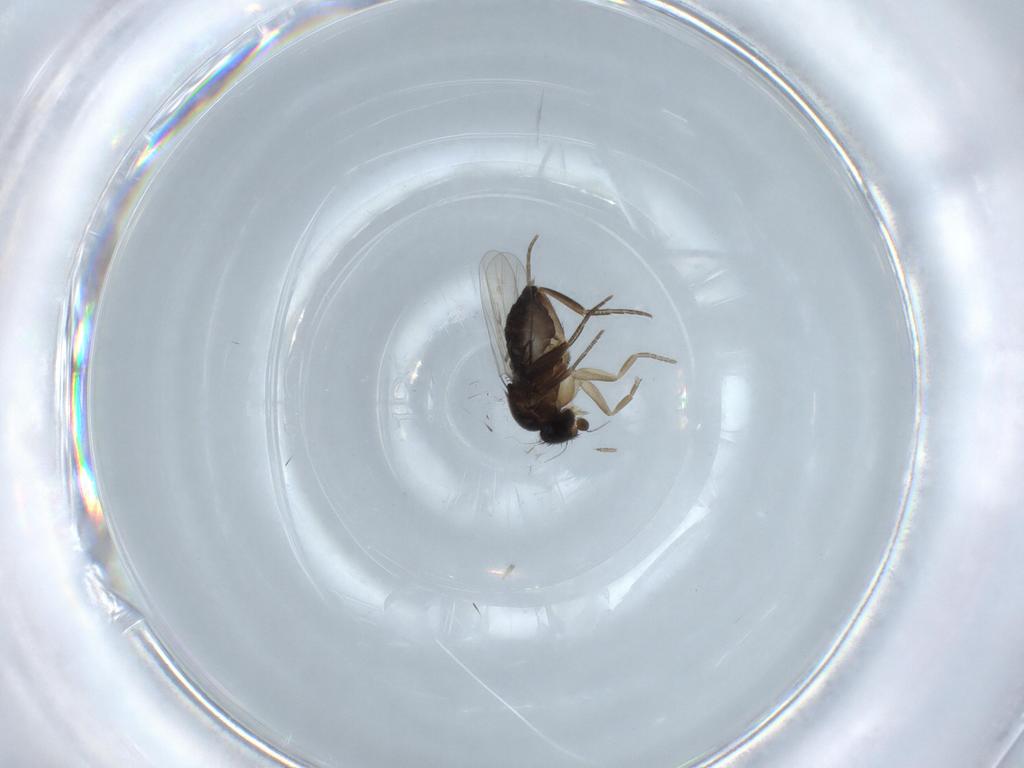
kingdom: Animalia
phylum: Arthropoda
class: Insecta
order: Diptera
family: Phoridae
